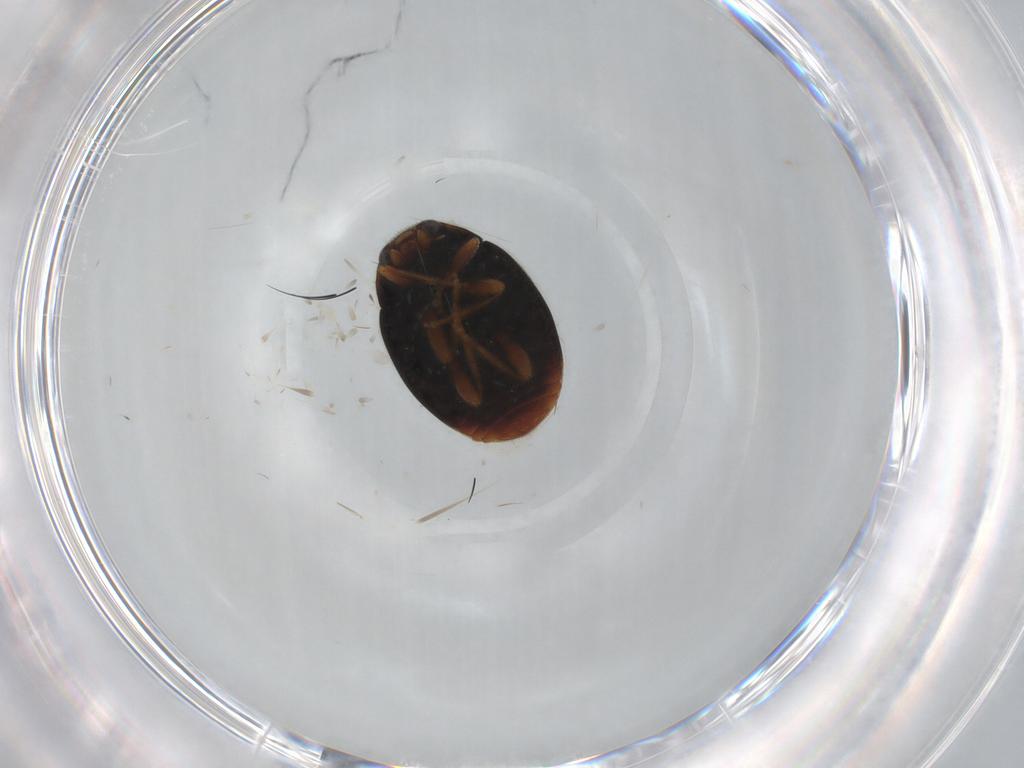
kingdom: Animalia
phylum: Arthropoda
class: Insecta
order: Coleoptera
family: Coccinellidae
